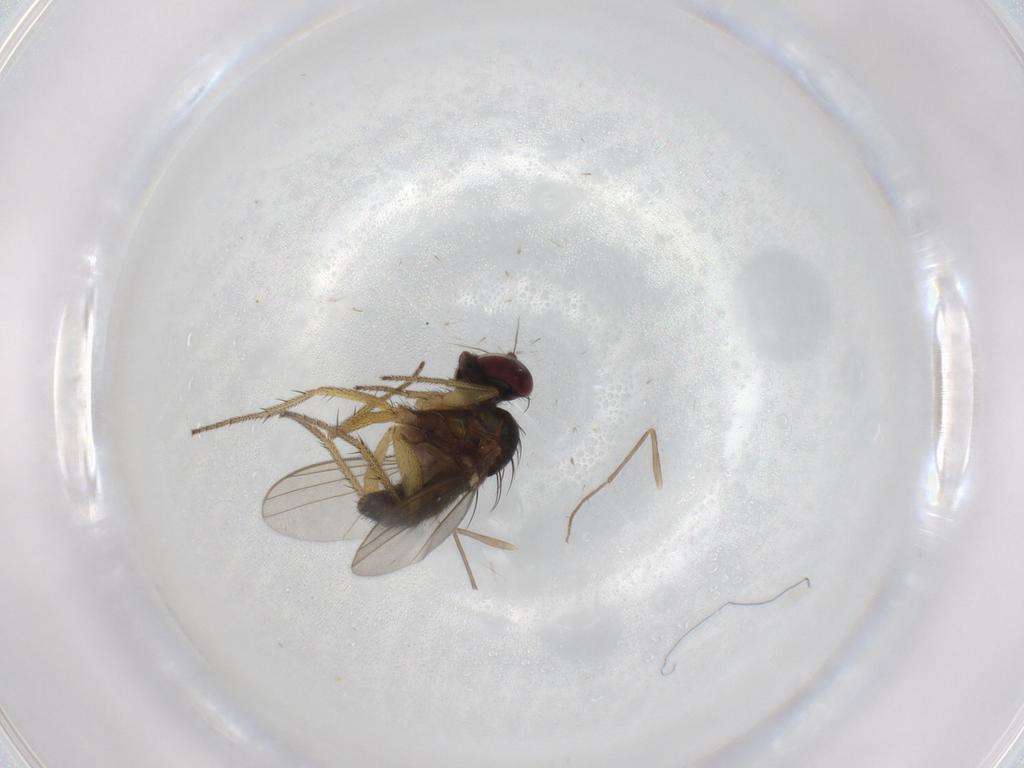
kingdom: Animalia
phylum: Arthropoda
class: Insecta
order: Diptera
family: Chironomidae
